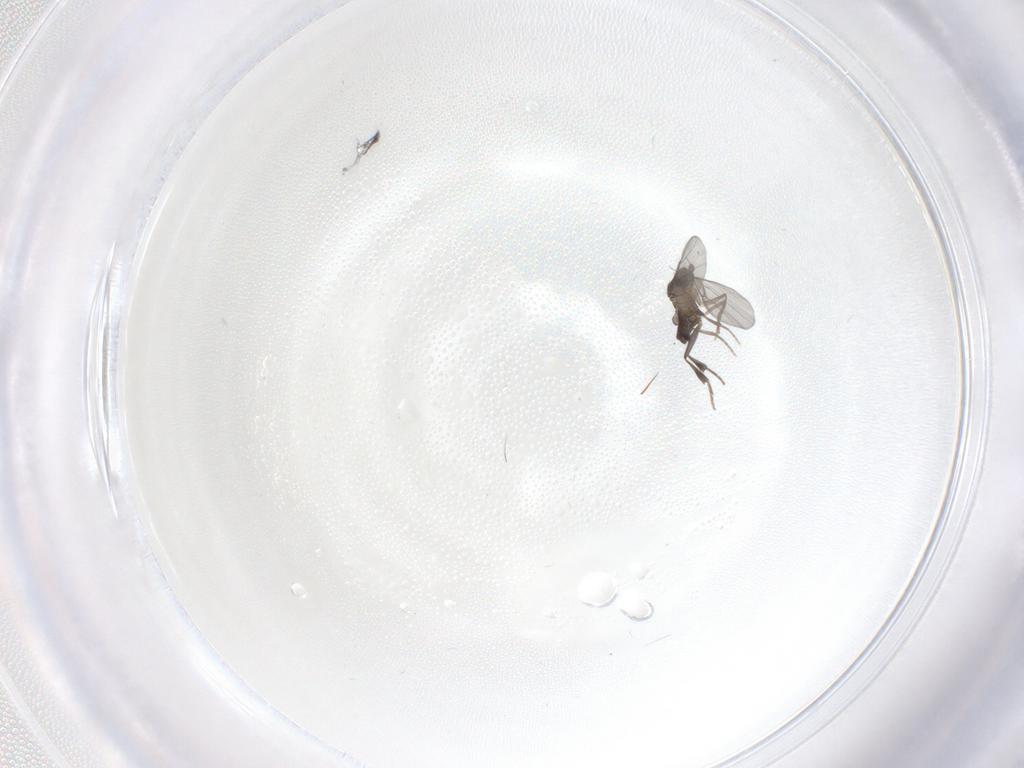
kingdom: Animalia
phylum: Arthropoda
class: Insecta
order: Diptera
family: Phoridae
